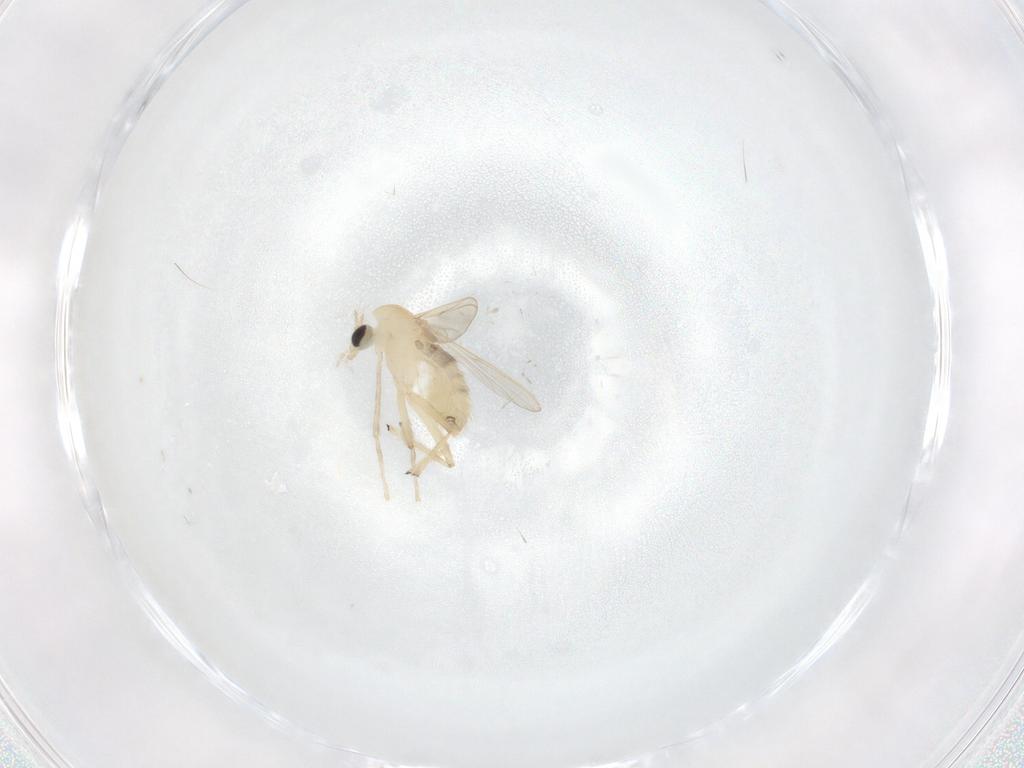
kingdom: Animalia
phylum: Arthropoda
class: Insecta
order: Diptera
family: Chironomidae
